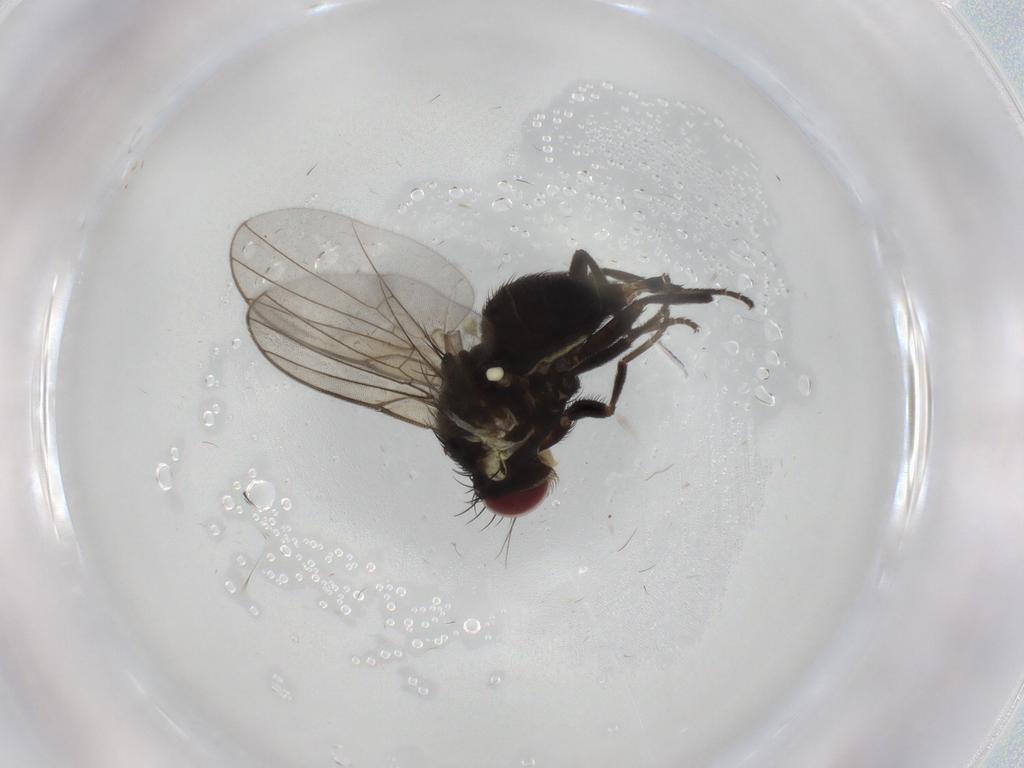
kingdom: Animalia
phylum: Arthropoda
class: Insecta
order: Diptera
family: Agromyzidae
